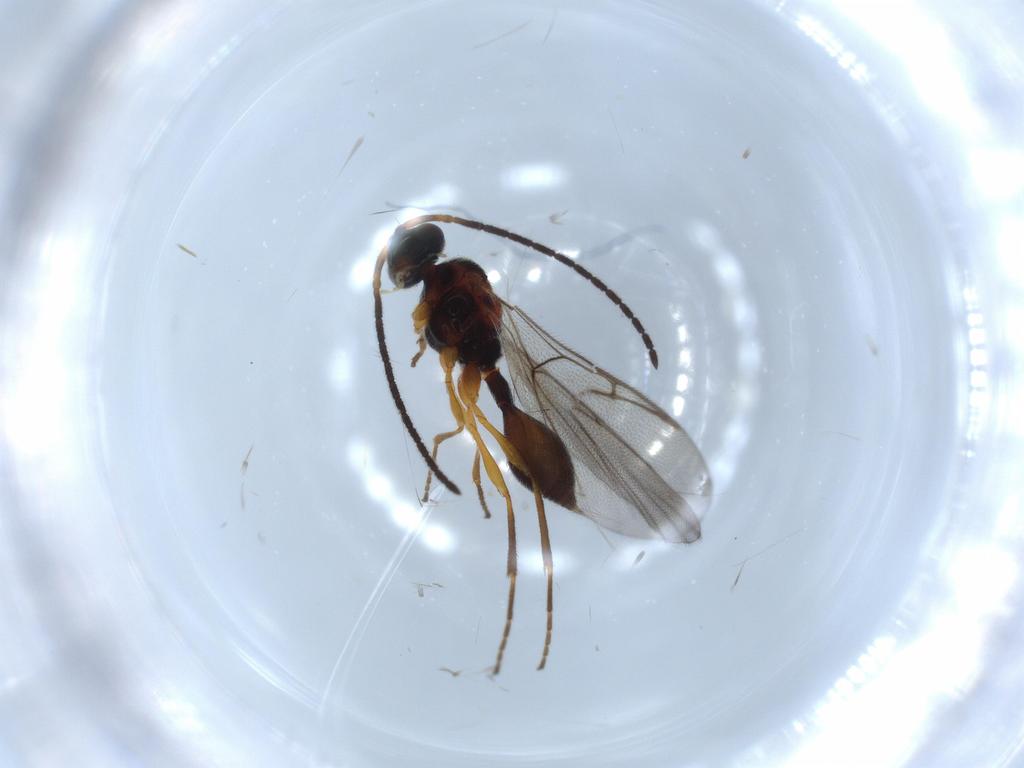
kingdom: Animalia
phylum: Arthropoda
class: Insecta
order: Hymenoptera
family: Diapriidae
